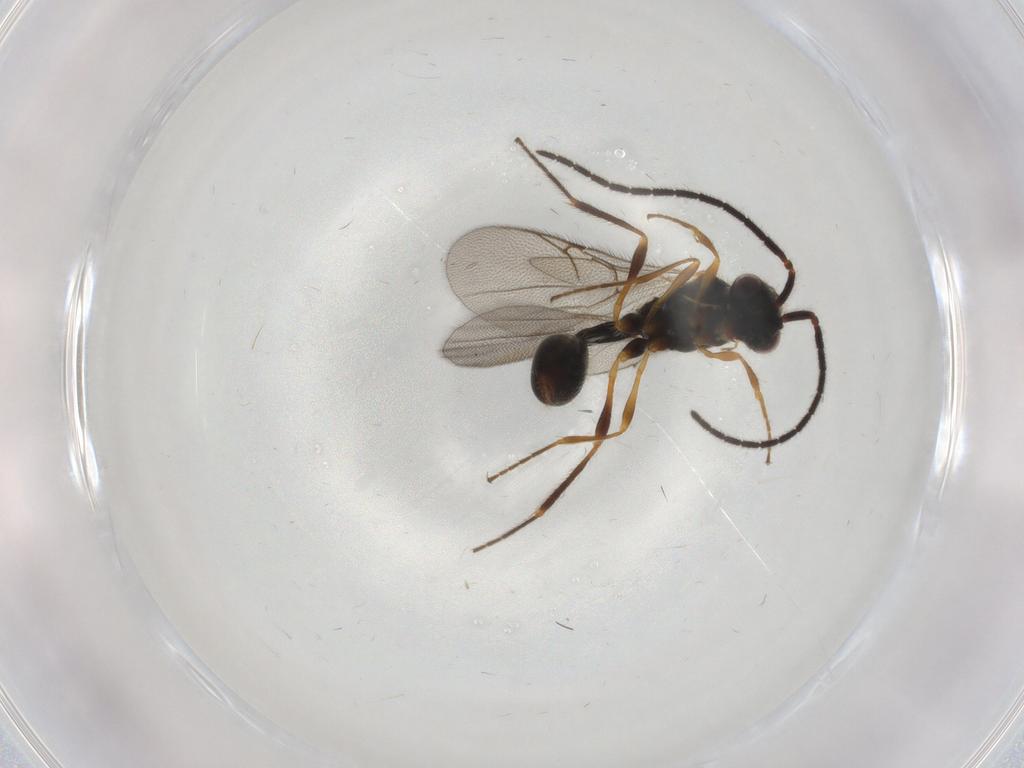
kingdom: Animalia
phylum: Arthropoda
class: Insecta
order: Hymenoptera
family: Diapriidae
